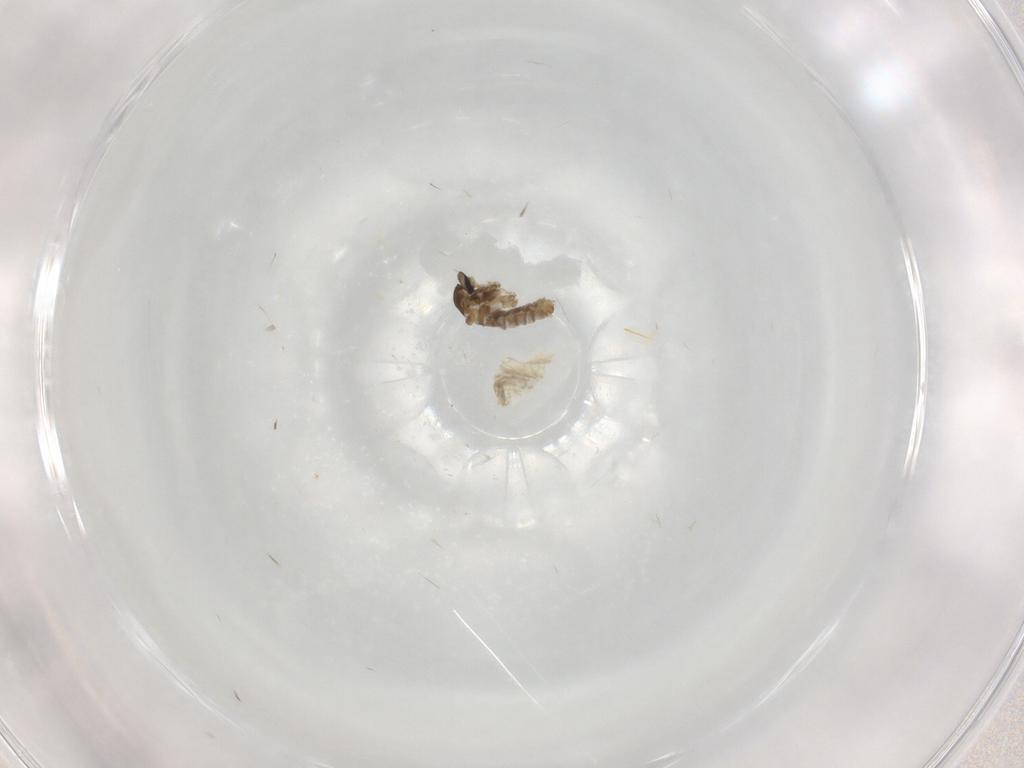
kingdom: Animalia
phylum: Arthropoda
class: Insecta
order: Diptera
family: Sarcophagidae
